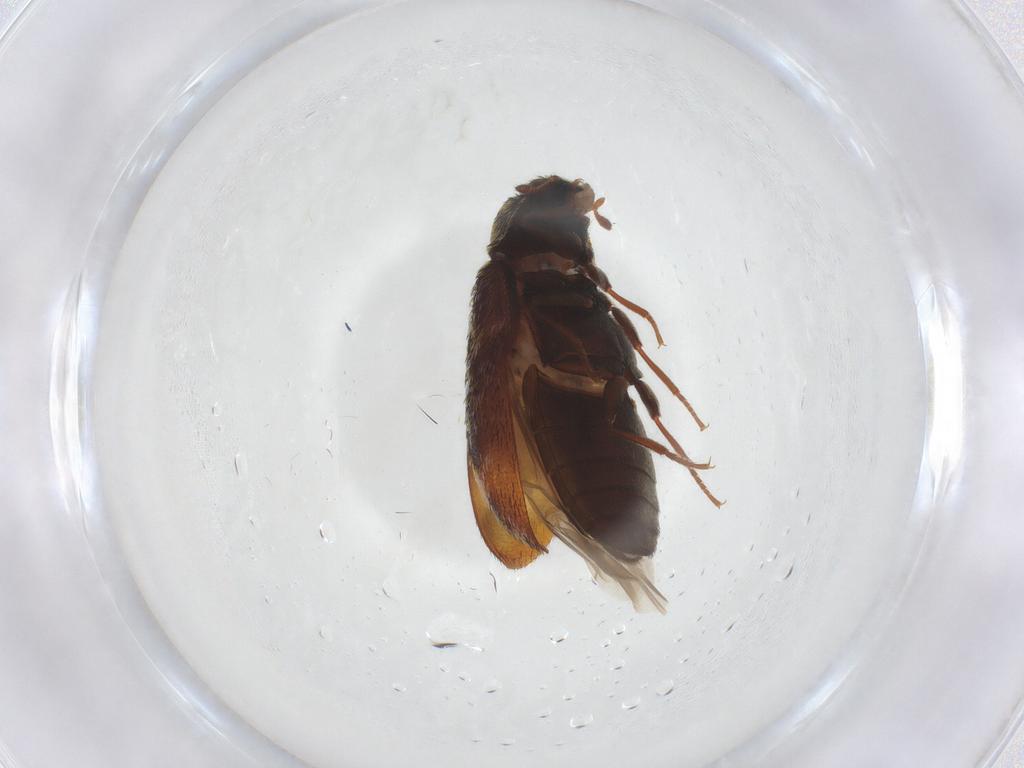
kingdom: Animalia
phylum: Arthropoda
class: Insecta
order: Coleoptera
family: Dermestidae
